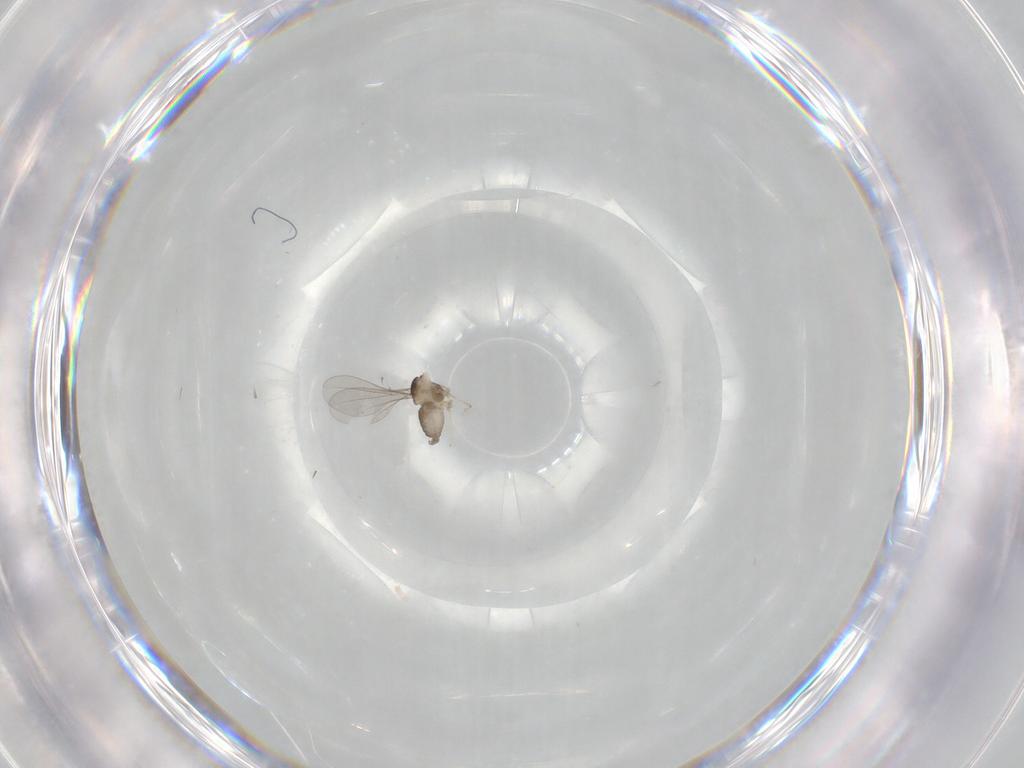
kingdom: Animalia
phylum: Arthropoda
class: Insecta
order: Diptera
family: Cecidomyiidae
